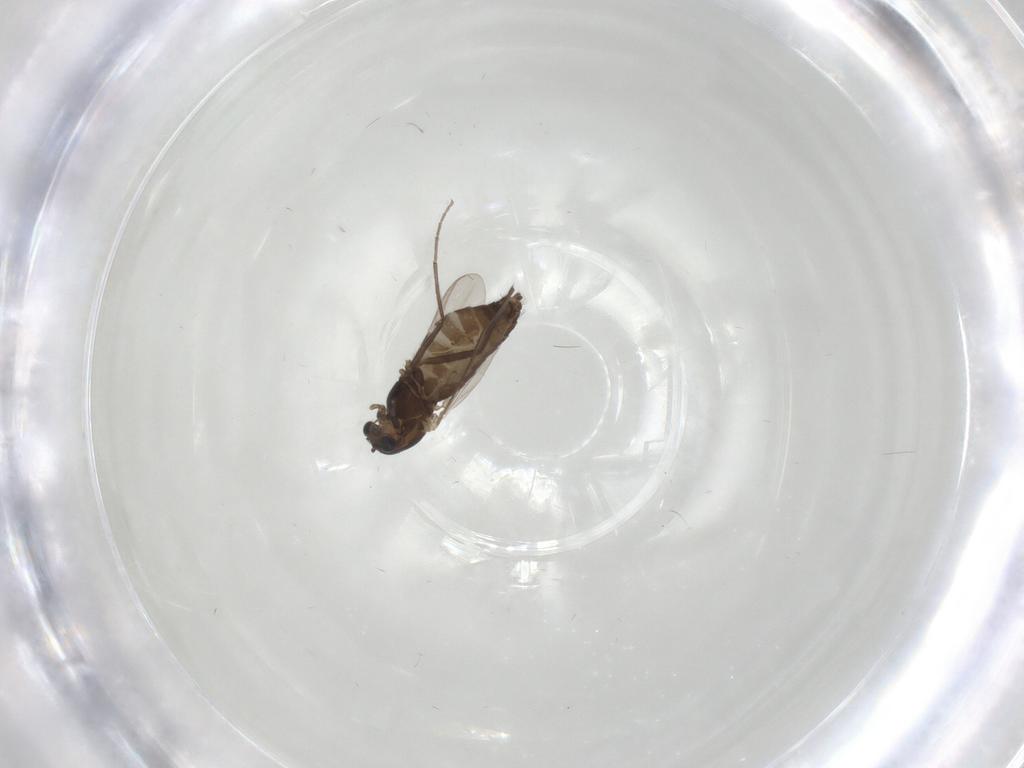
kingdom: Animalia
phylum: Arthropoda
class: Insecta
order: Diptera
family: Chironomidae
